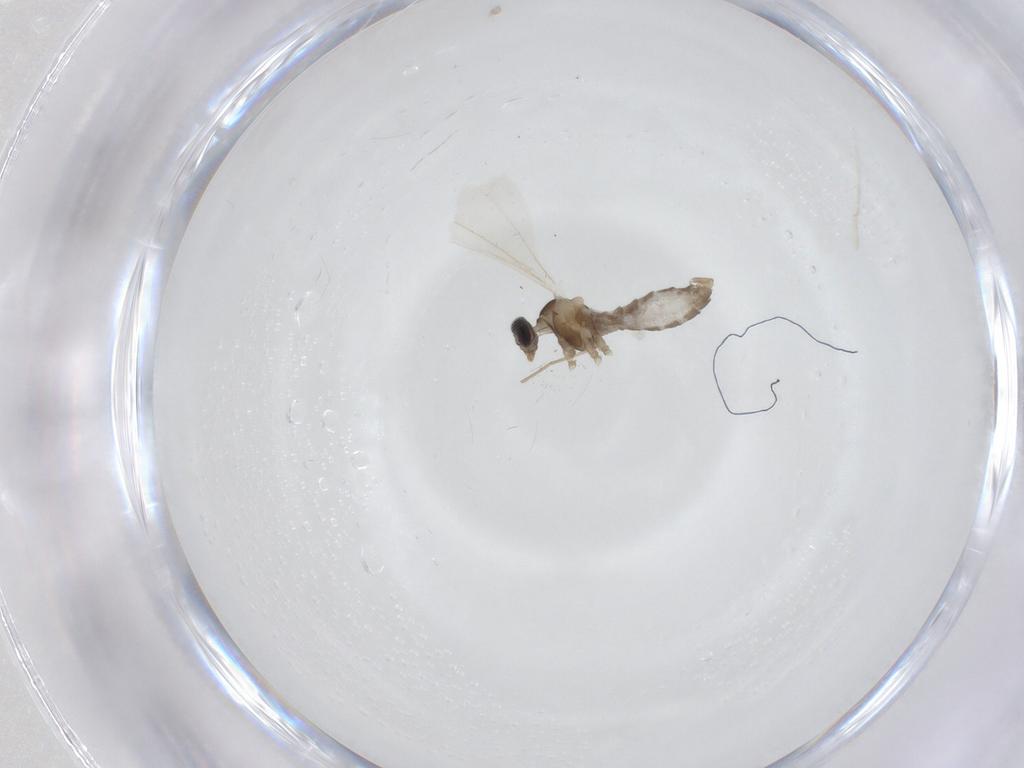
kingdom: Animalia
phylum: Arthropoda
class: Insecta
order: Diptera
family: Cecidomyiidae
